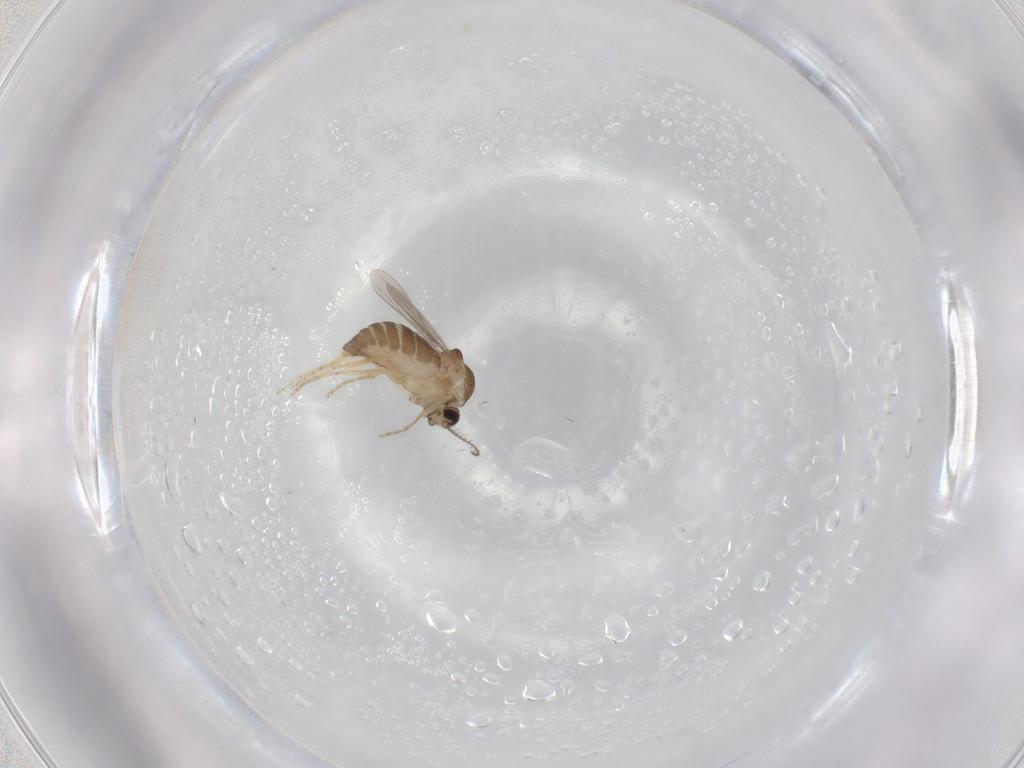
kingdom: Animalia
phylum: Arthropoda
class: Insecta
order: Diptera
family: Ceratopogonidae
